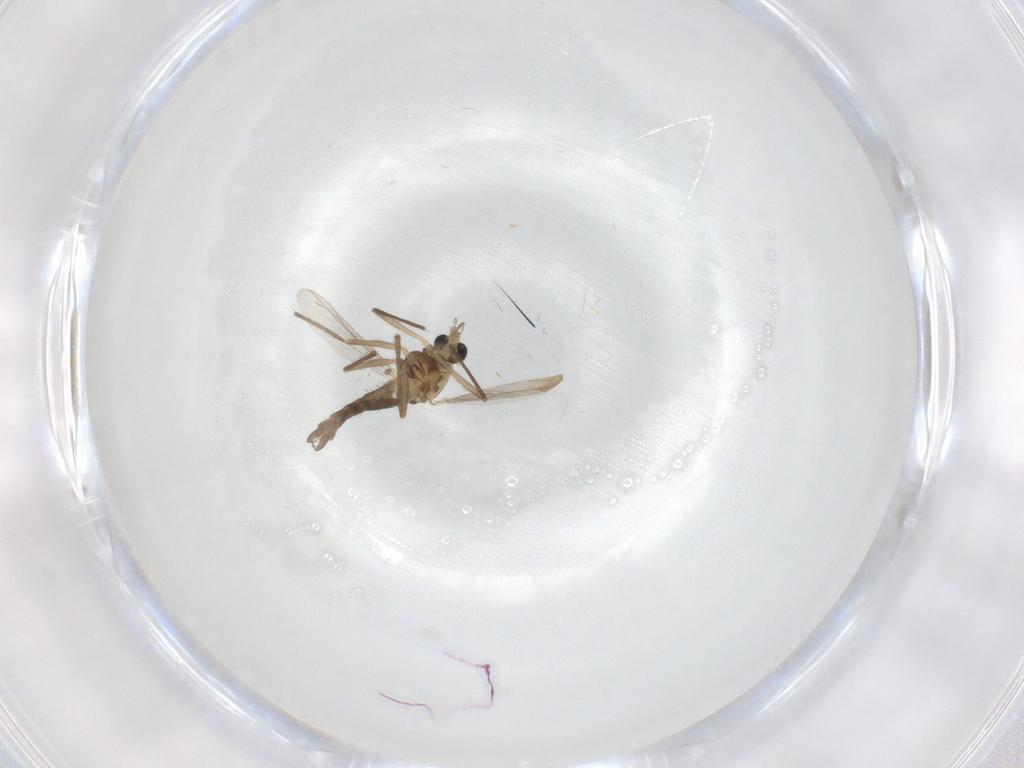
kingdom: Animalia
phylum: Arthropoda
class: Insecta
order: Diptera
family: Chironomidae
